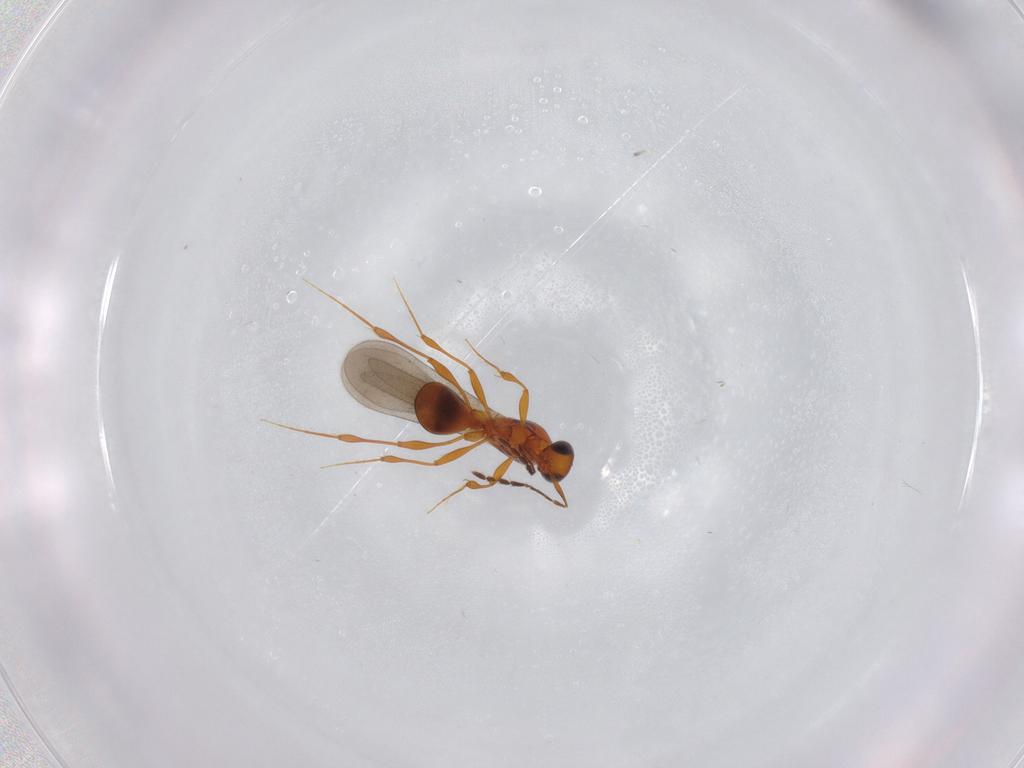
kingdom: Animalia
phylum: Arthropoda
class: Insecta
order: Hymenoptera
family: Platygastridae
